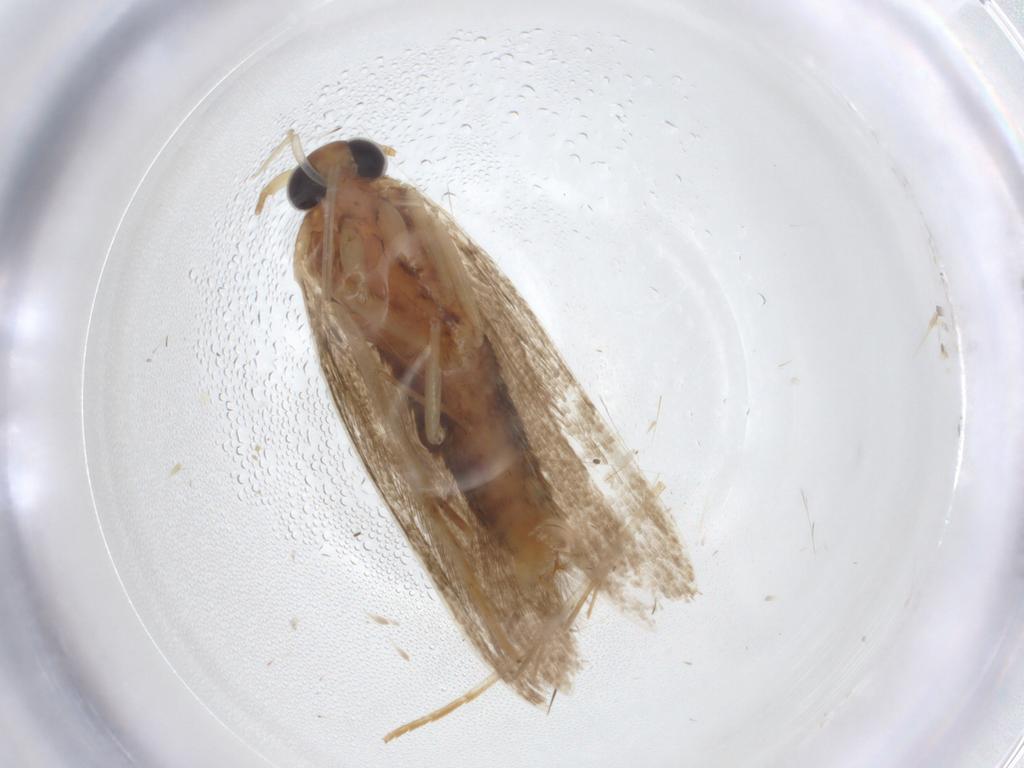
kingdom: Animalia
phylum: Arthropoda
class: Insecta
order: Lepidoptera
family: Blastobasidae
